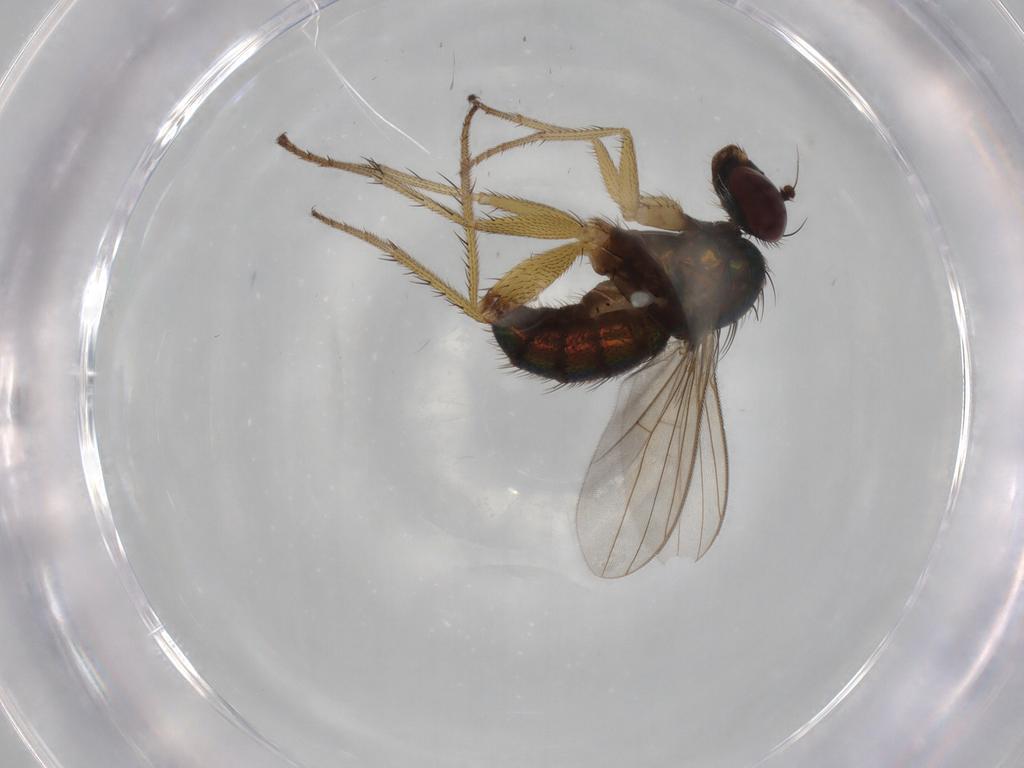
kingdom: Animalia
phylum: Arthropoda
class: Insecta
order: Diptera
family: Dolichopodidae
